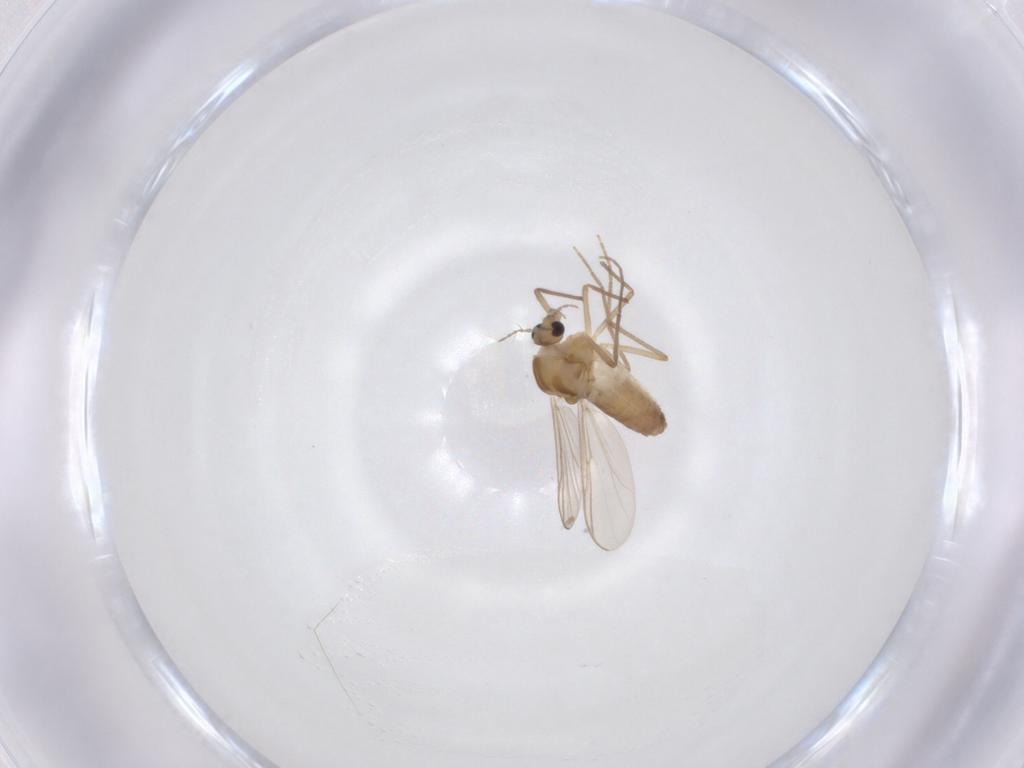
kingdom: Animalia
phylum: Arthropoda
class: Insecta
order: Diptera
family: Chironomidae
